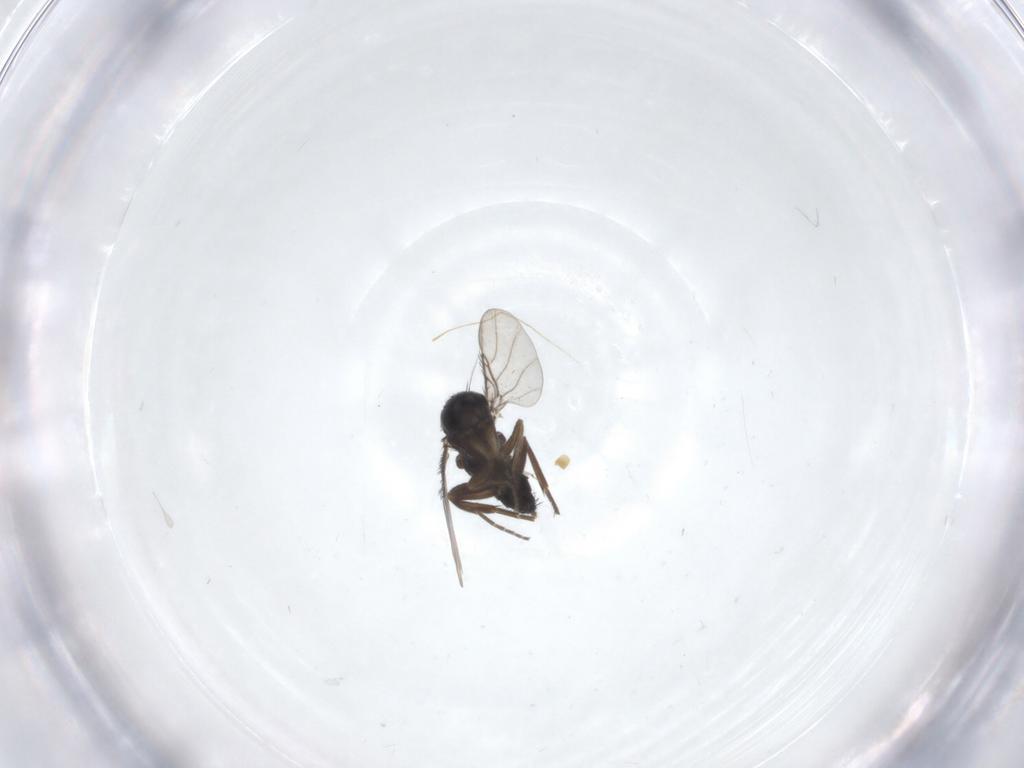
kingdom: Animalia
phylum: Arthropoda
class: Insecta
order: Diptera
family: Phoridae
